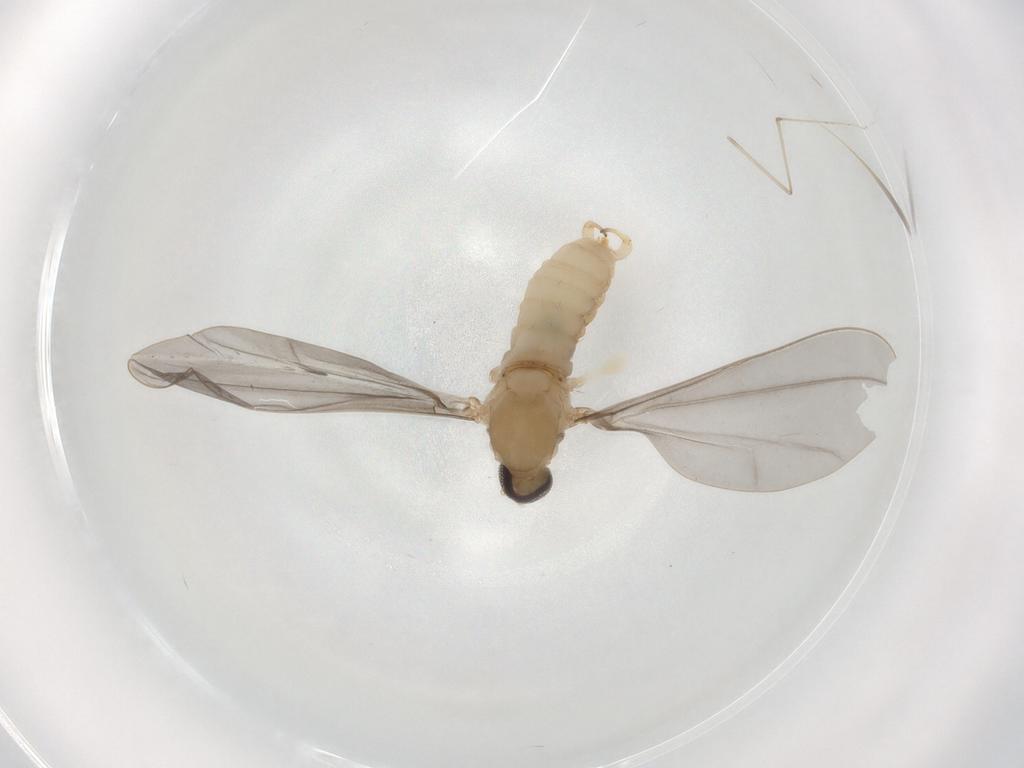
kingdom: Animalia
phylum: Arthropoda
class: Insecta
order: Diptera
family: Cecidomyiidae
